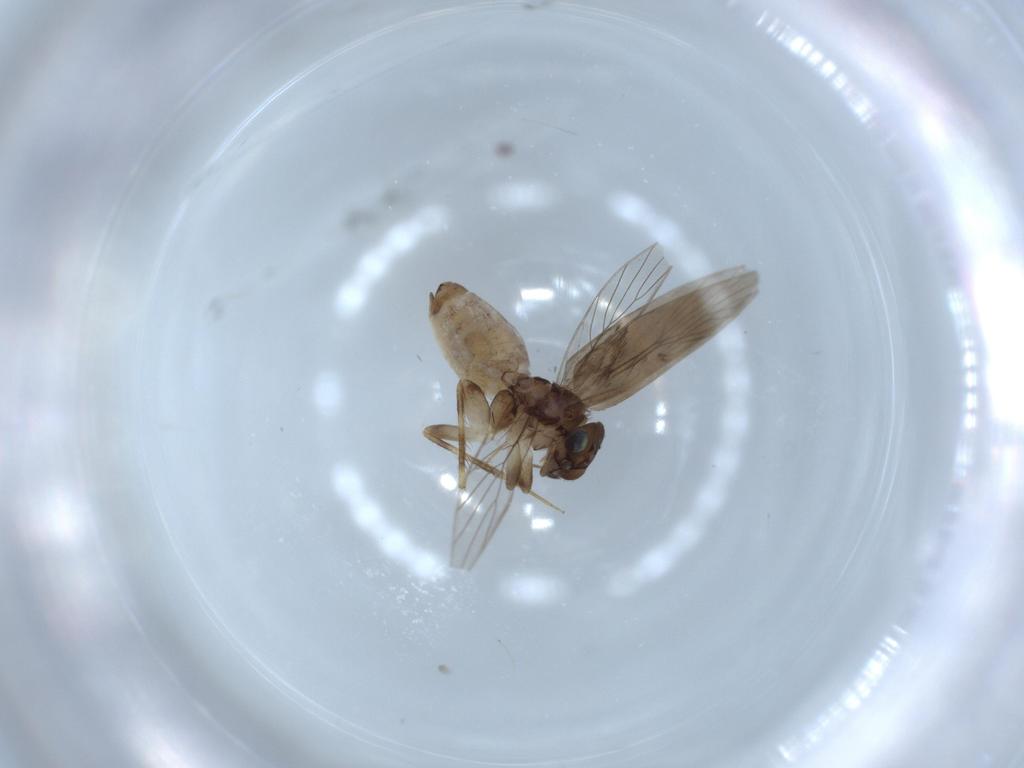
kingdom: Animalia
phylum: Arthropoda
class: Insecta
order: Psocodea
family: Lepidopsocidae
